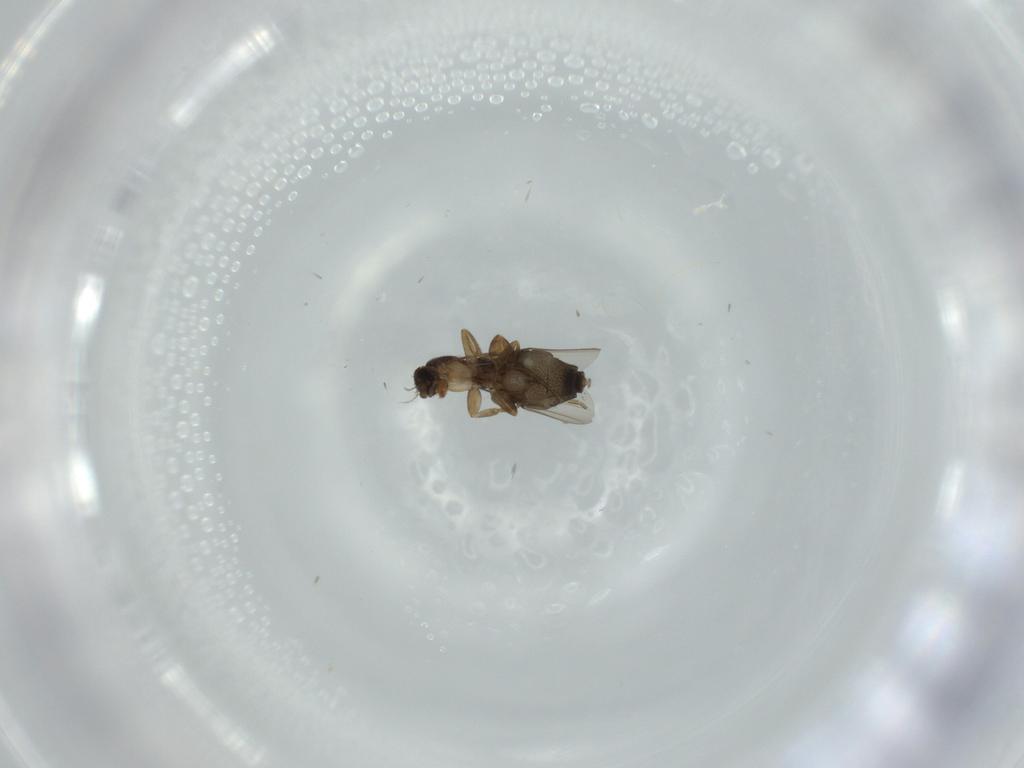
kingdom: Animalia
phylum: Arthropoda
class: Insecta
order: Diptera
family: Phoridae
